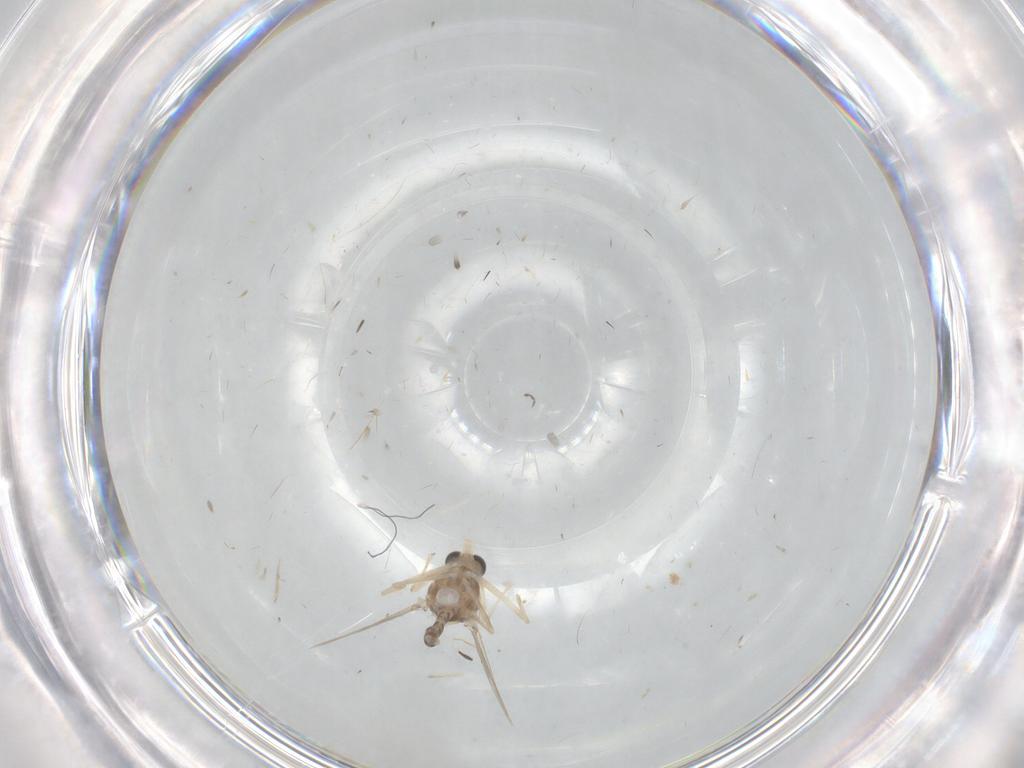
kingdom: Animalia
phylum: Arthropoda
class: Insecta
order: Diptera
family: Chironomidae
